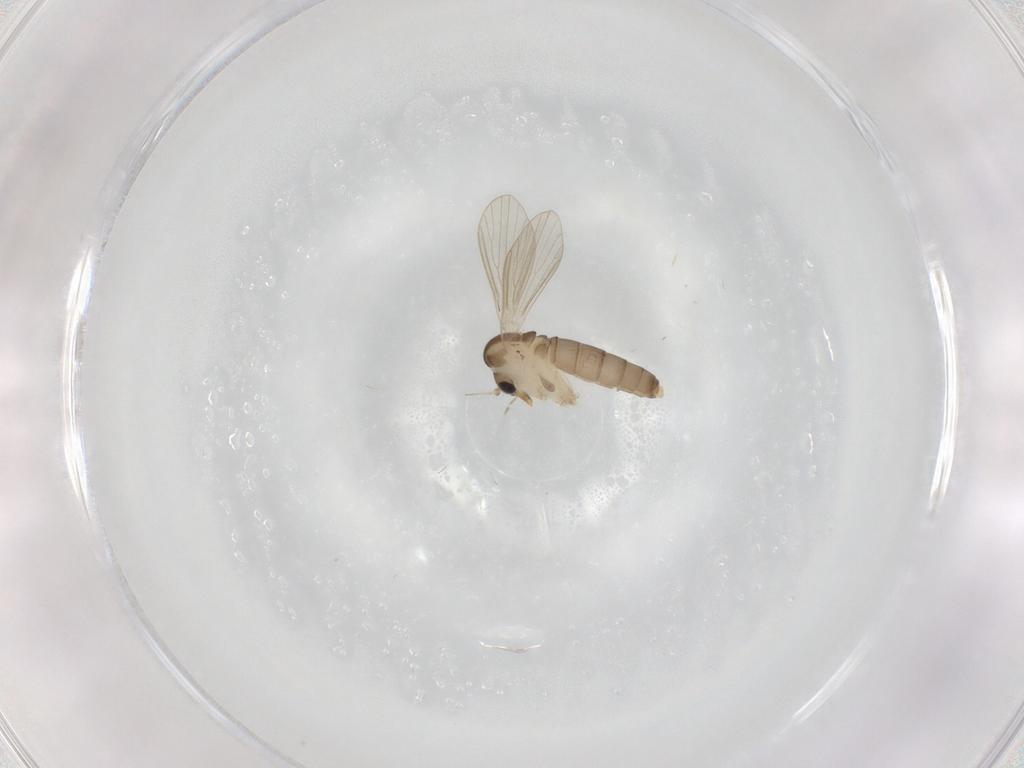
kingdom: Animalia
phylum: Arthropoda
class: Insecta
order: Diptera
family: Psychodidae
